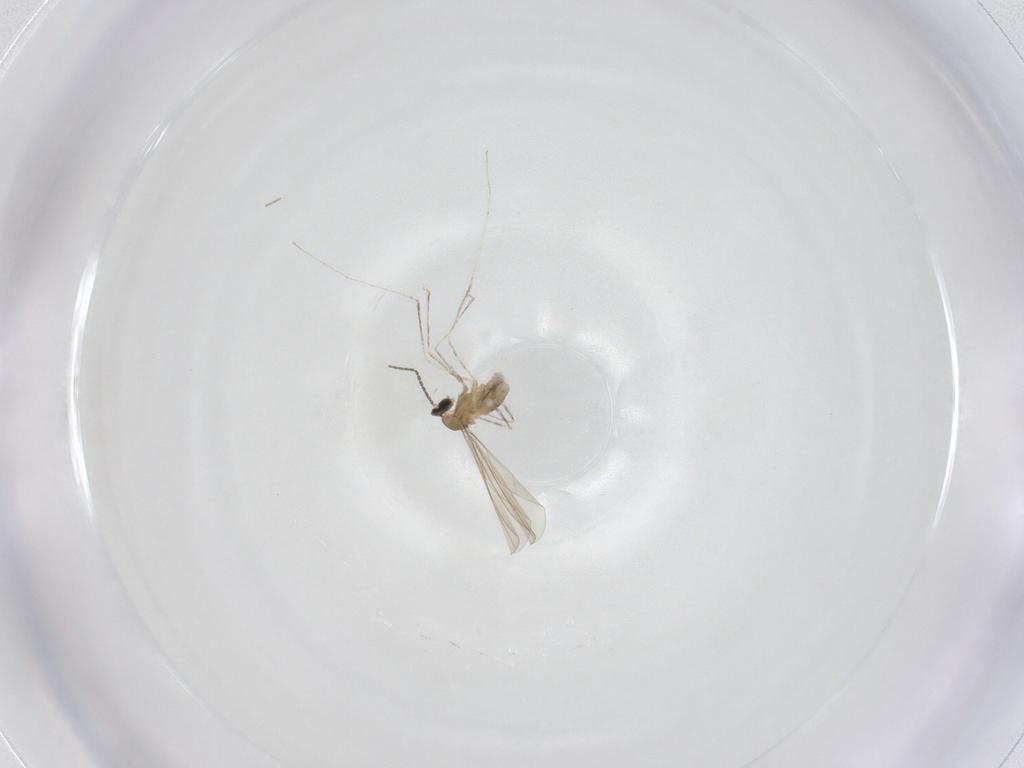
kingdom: Animalia
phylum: Arthropoda
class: Insecta
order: Diptera
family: Cecidomyiidae
